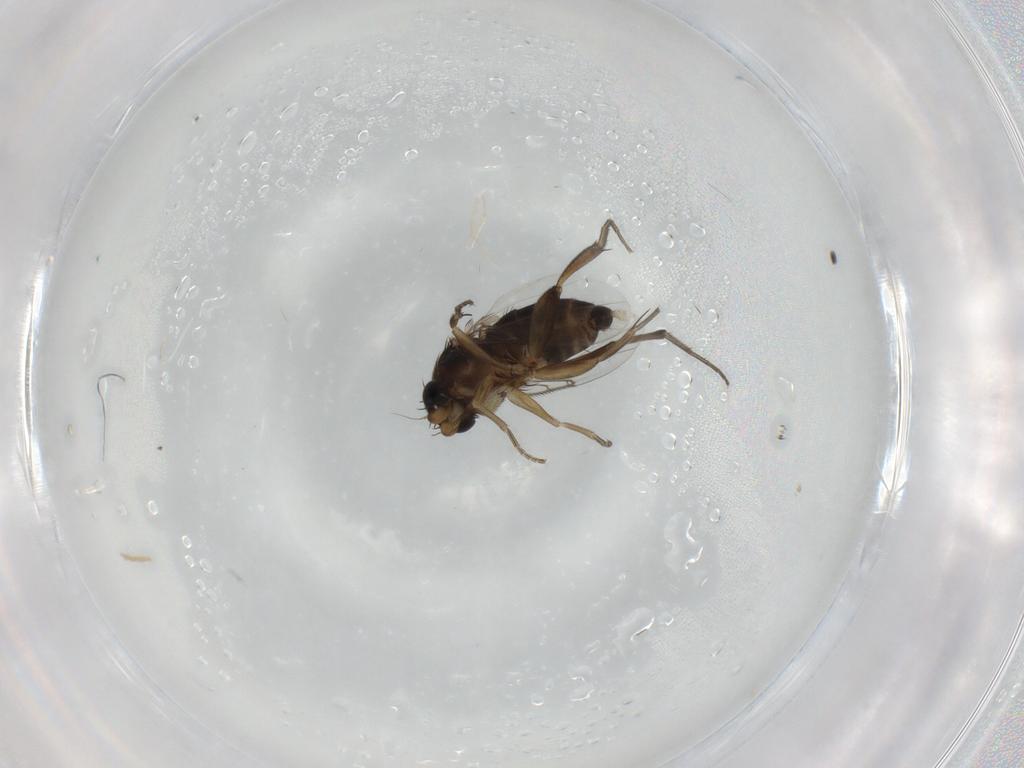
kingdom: Animalia
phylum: Arthropoda
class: Insecta
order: Diptera
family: Phoridae
